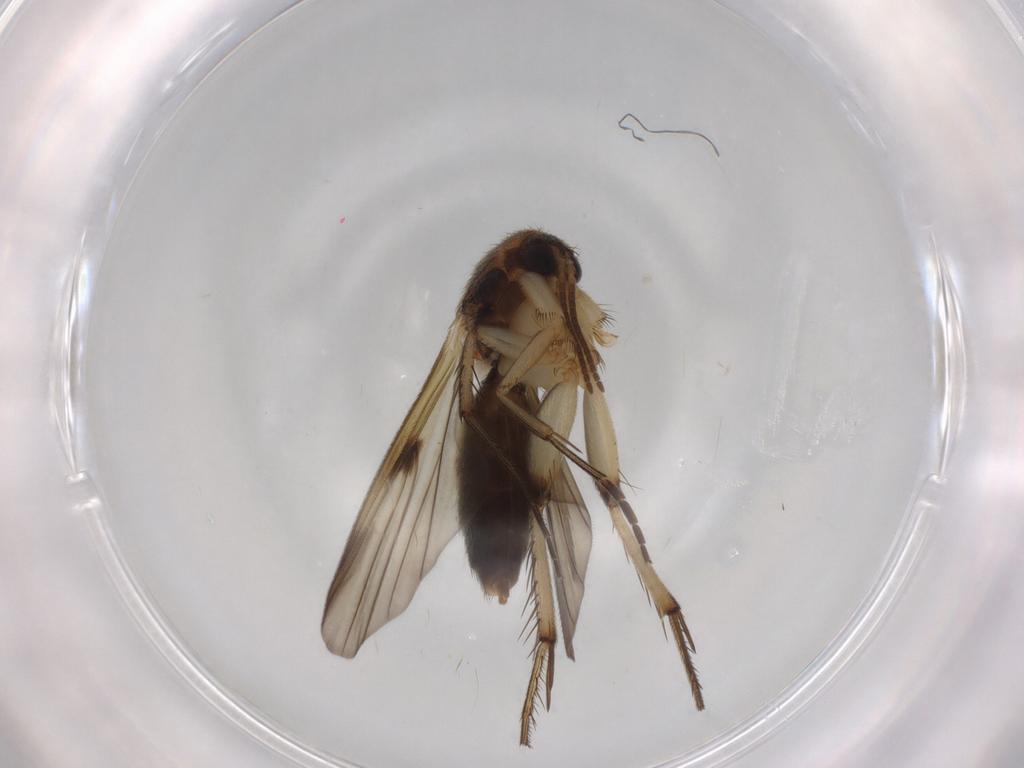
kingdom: Animalia
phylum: Arthropoda
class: Insecta
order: Diptera
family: Mycetophilidae
